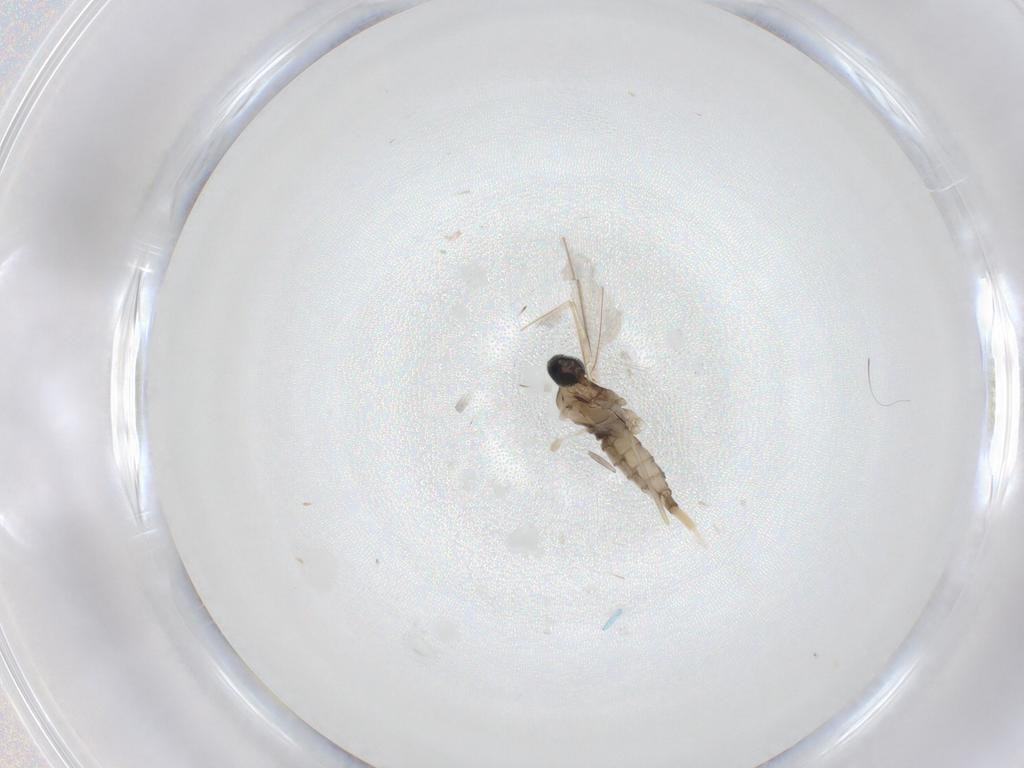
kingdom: Animalia
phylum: Arthropoda
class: Insecta
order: Diptera
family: Cecidomyiidae
